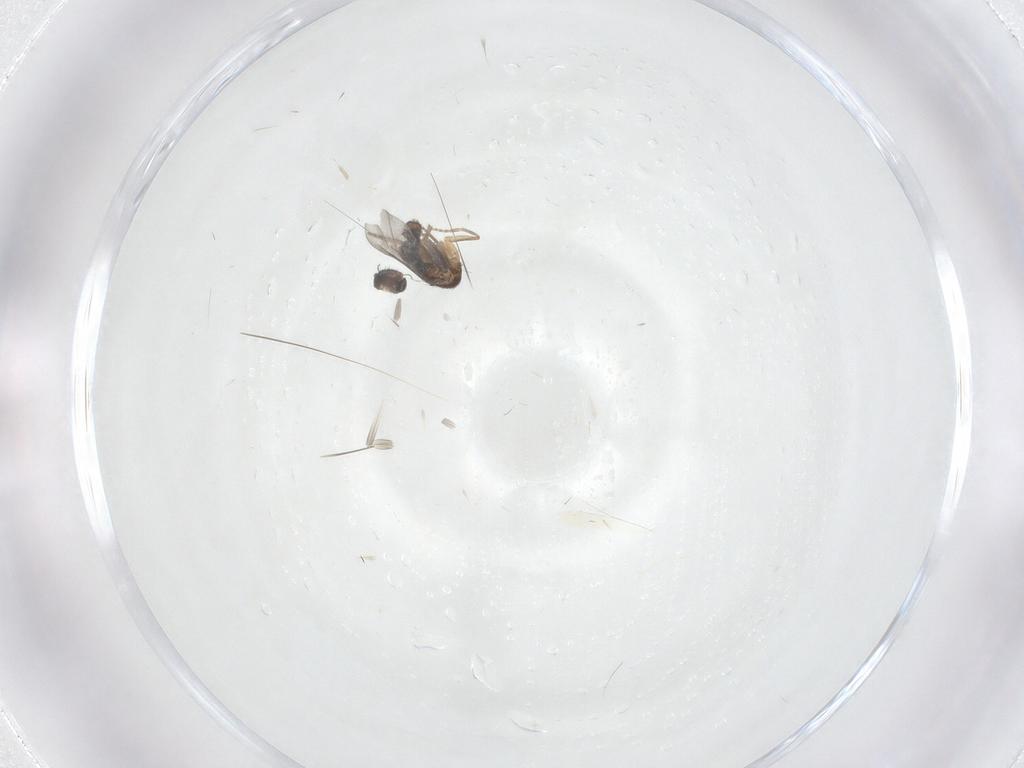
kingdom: Animalia
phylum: Arthropoda
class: Insecta
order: Diptera
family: Cecidomyiidae
